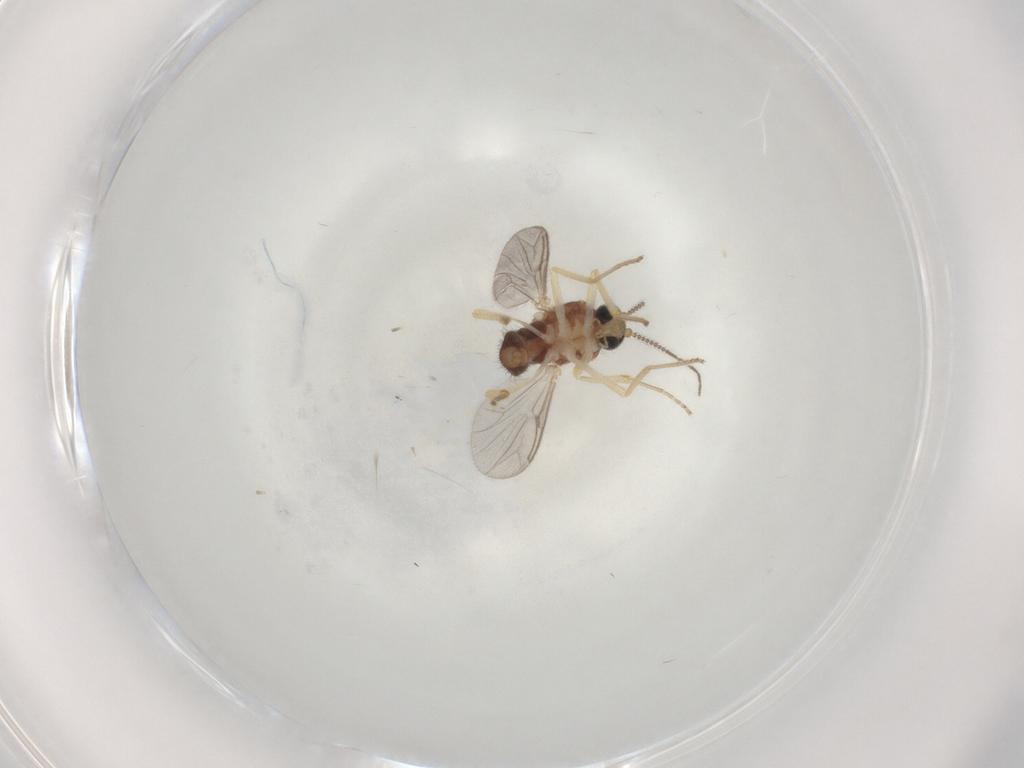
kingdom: Animalia
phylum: Arthropoda
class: Insecta
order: Diptera
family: Ceratopogonidae
